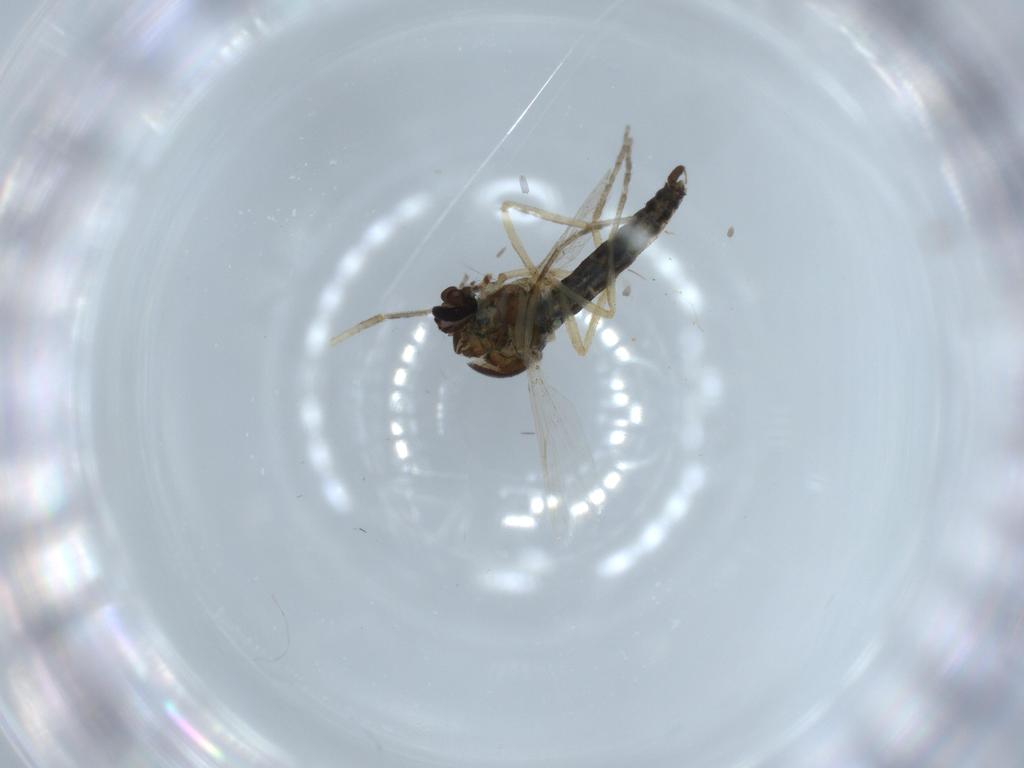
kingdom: Animalia
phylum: Arthropoda
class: Insecta
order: Diptera
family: Ceratopogonidae
